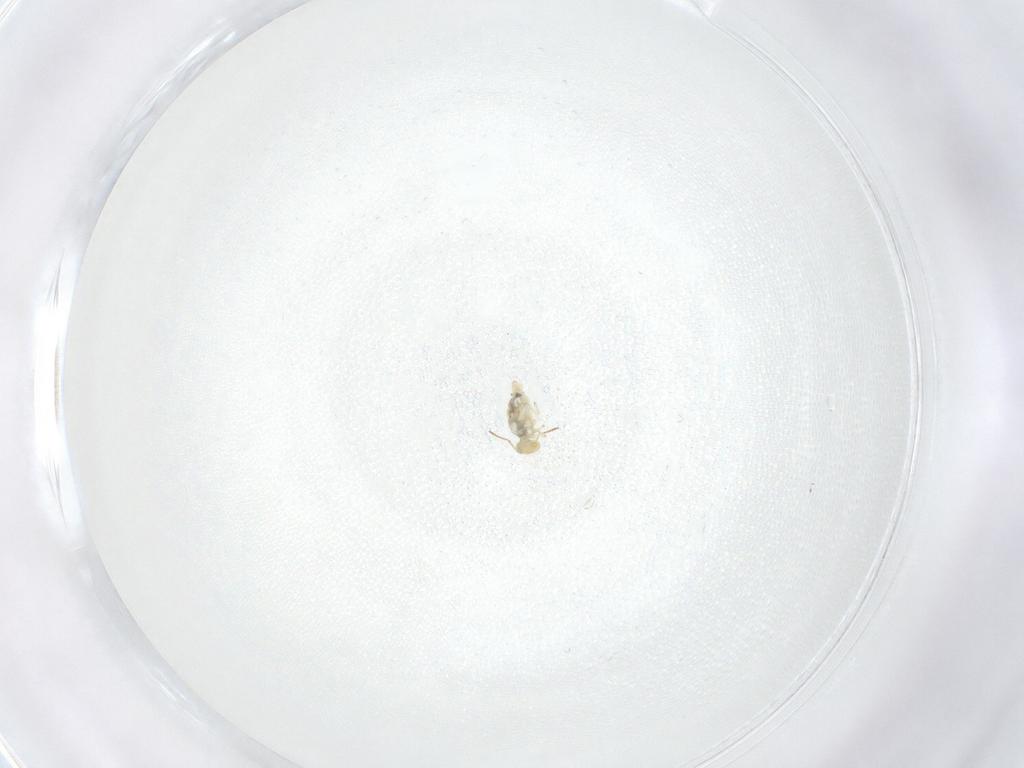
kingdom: Animalia
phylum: Arthropoda
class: Collembola
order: Symphypleona
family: Bourletiellidae
